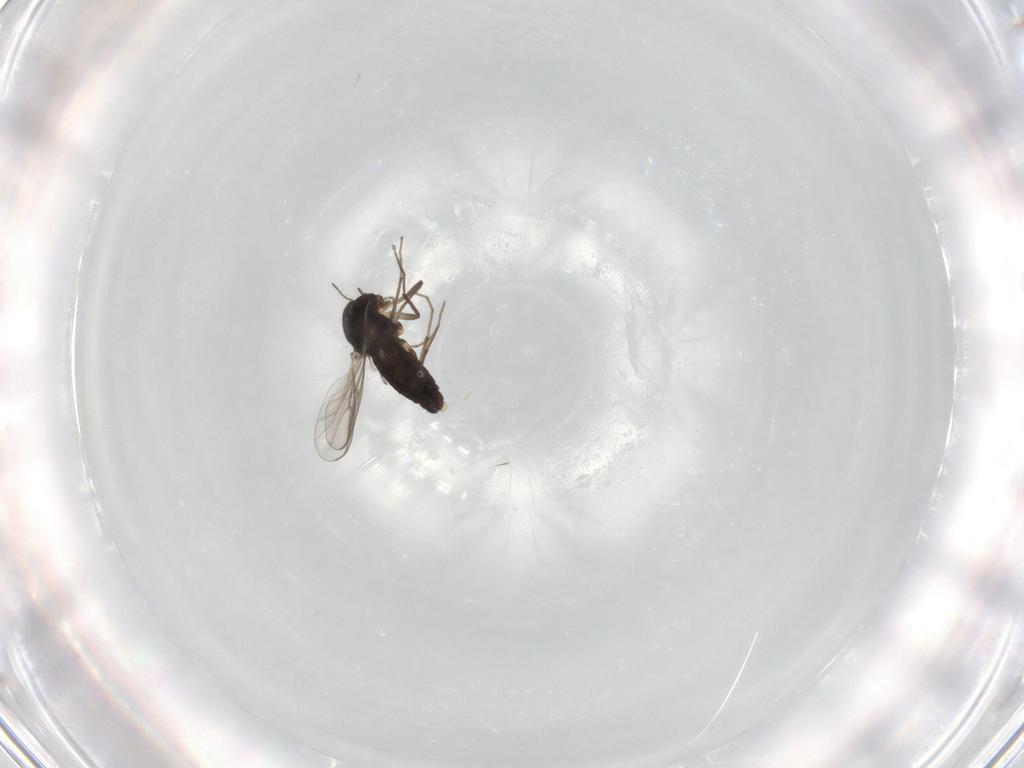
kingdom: Animalia
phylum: Arthropoda
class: Insecta
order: Diptera
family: Chironomidae
